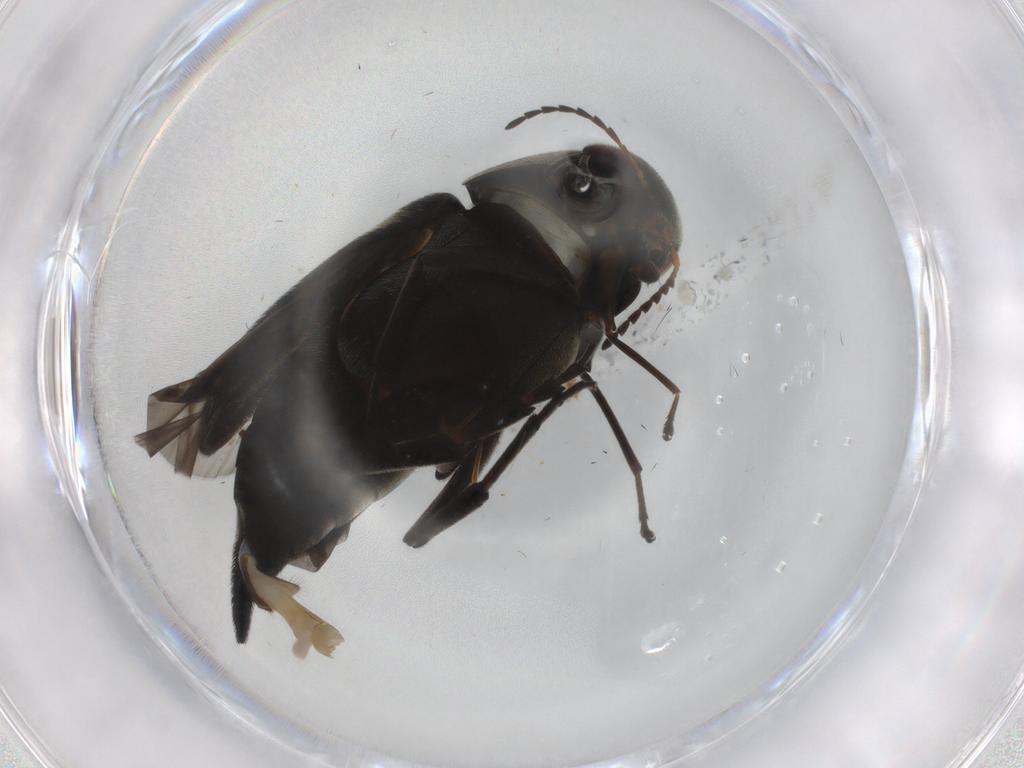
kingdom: Animalia
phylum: Arthropoda
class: Insecta
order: Coleoptera
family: Mordellidae
